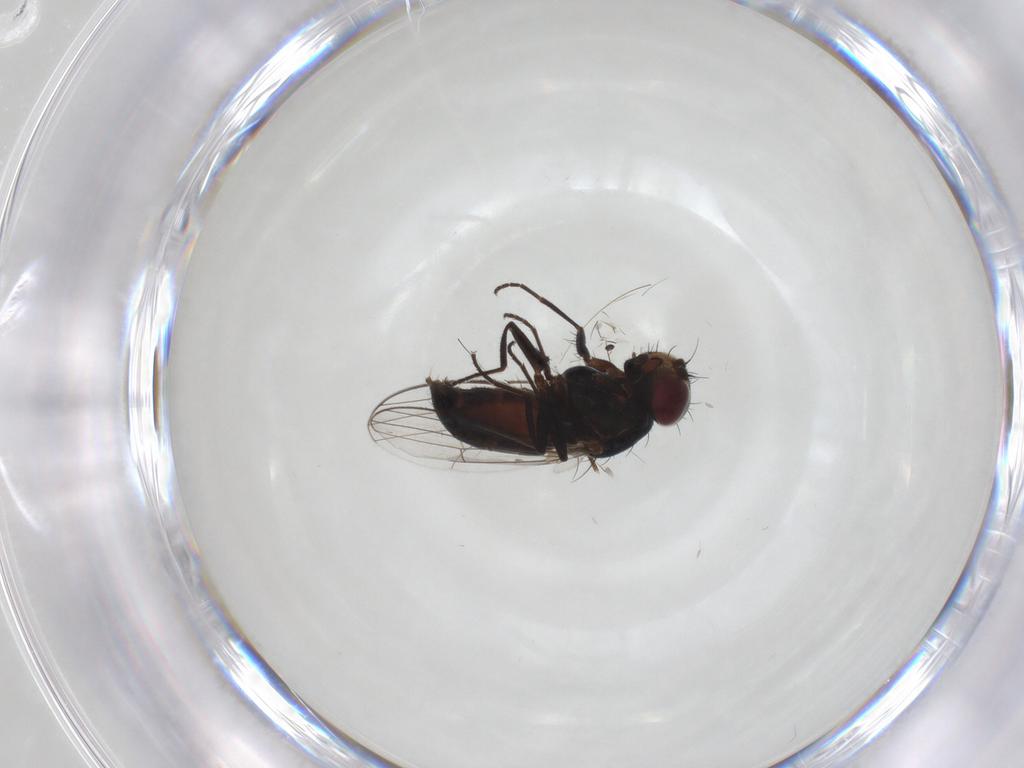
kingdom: Animalia
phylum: Arthropoda
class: Insecta
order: Diptera
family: Carnidae
